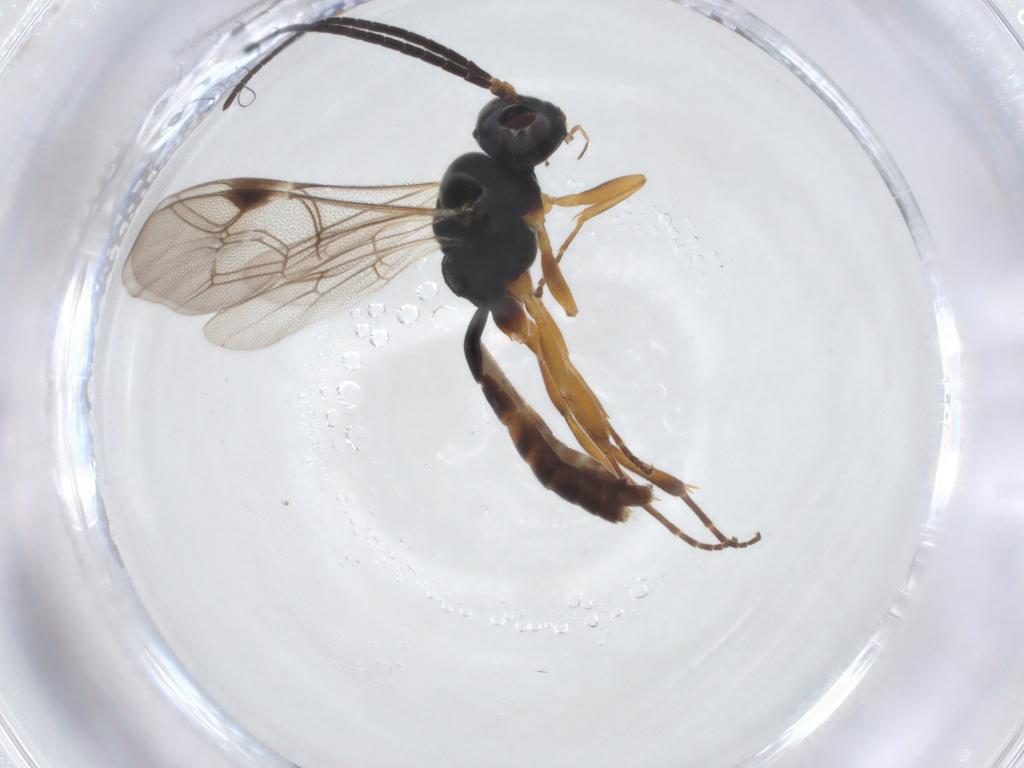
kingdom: Animalia
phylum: Arthropoda
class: Insecta
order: Hymenoptera
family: Ichneumonidae
